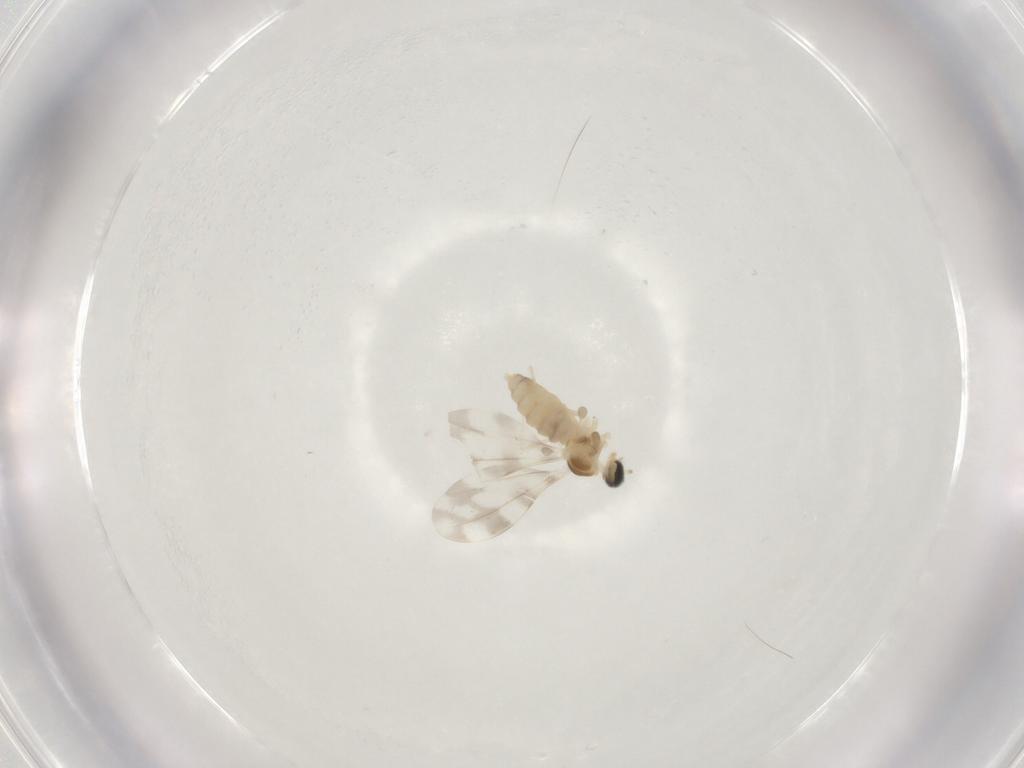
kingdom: Animalia
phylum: Arthropoda
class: Insecta
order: Diptera
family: Cecidomyiidae
